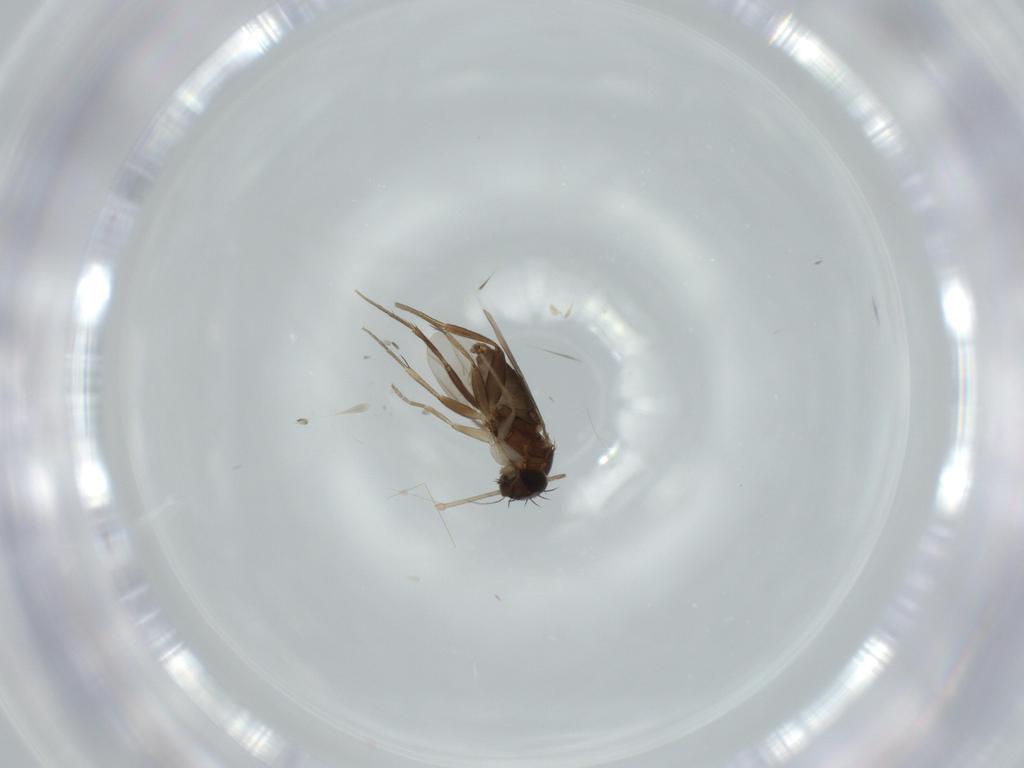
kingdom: Animalia
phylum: Arthropoda
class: Insecta
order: Diptera
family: Phoridae
